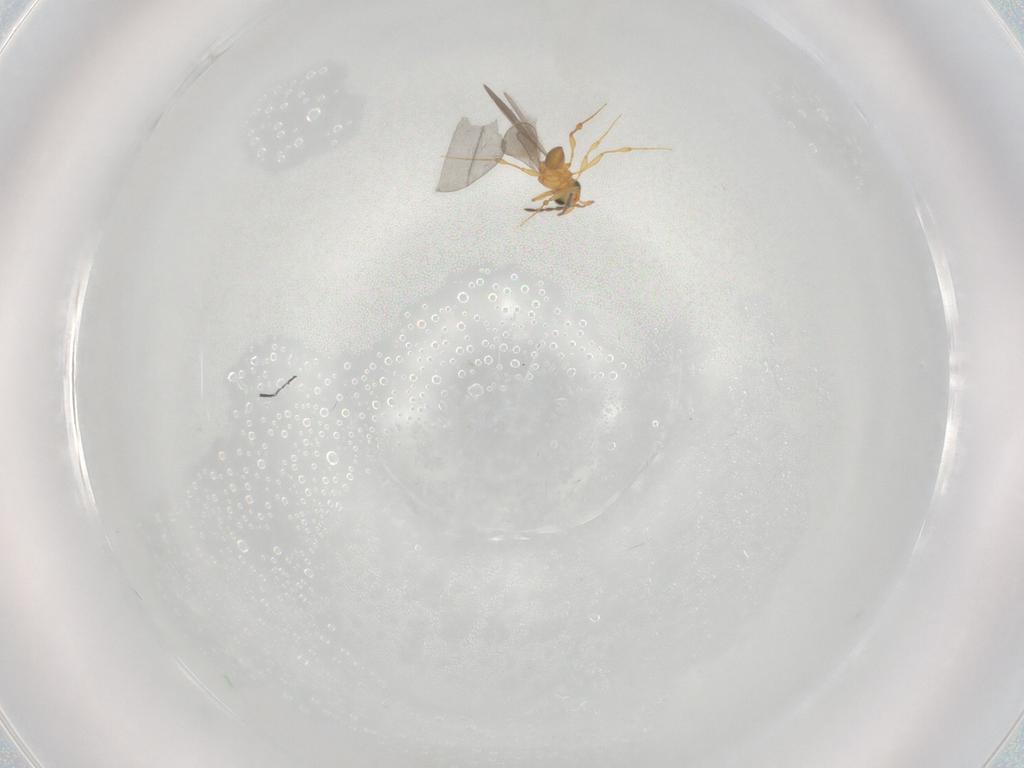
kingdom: Animalia
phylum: Arthropoda
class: Insecta
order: Hymenoptera
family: Platygastridae
